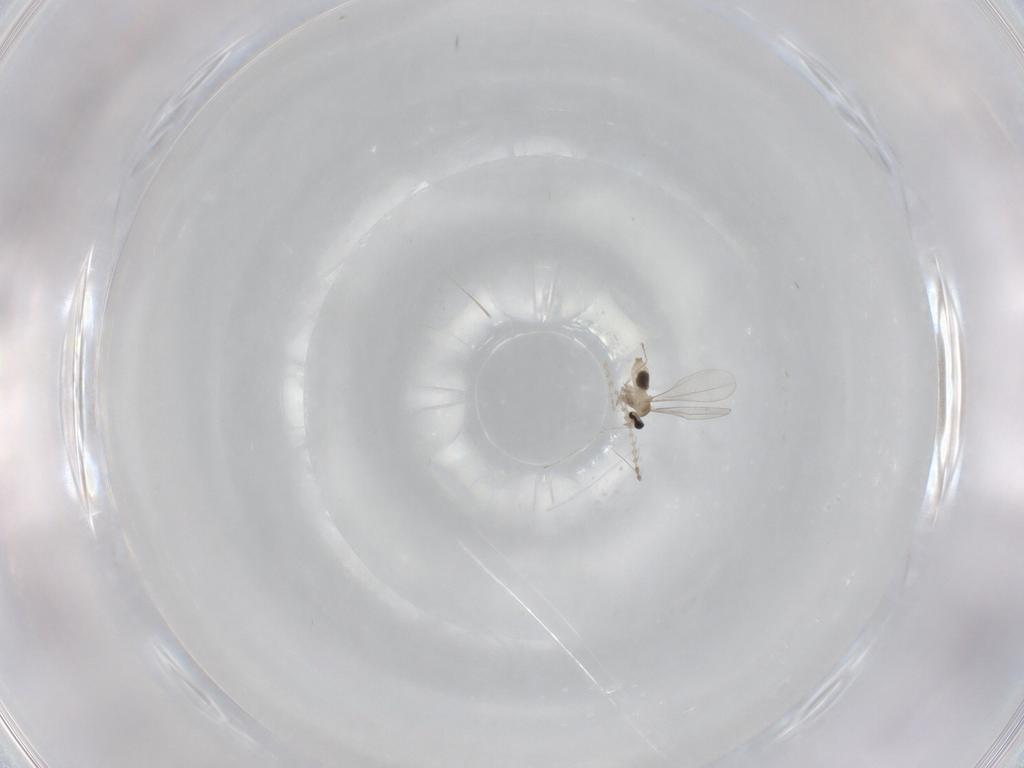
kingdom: Animalia
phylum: Arthropoda
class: Insecta
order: Diptera
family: Cecidomyiidae
